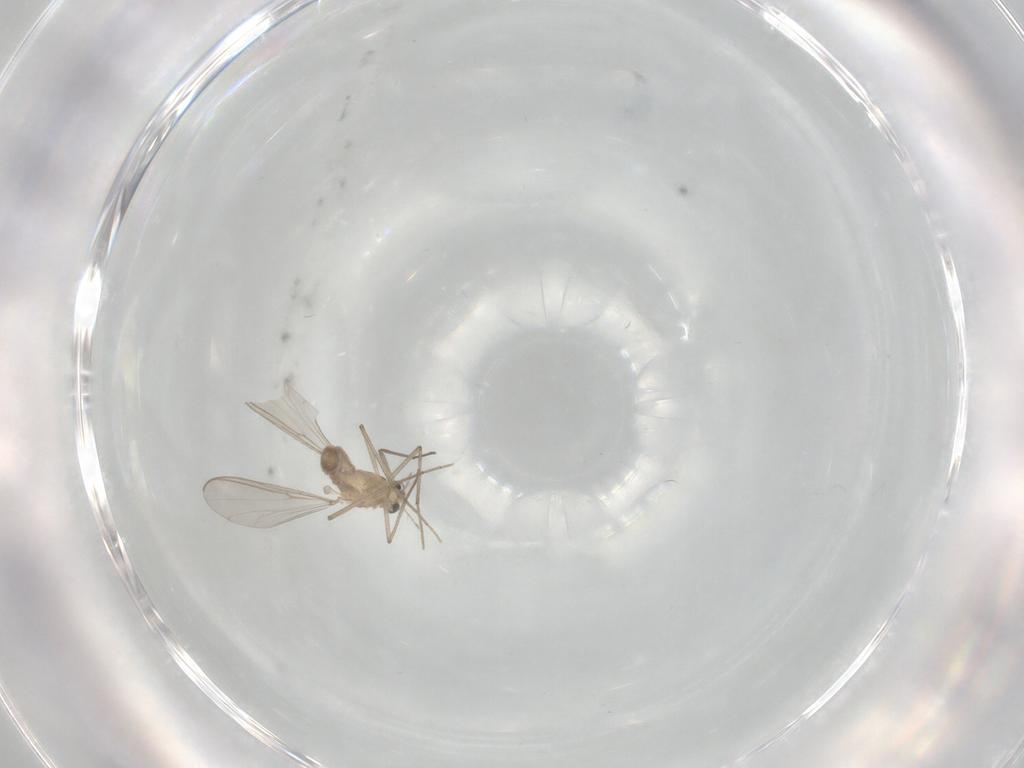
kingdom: Animalia
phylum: Arthropoda
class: Insecta
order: Diptera
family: Chironomidae
